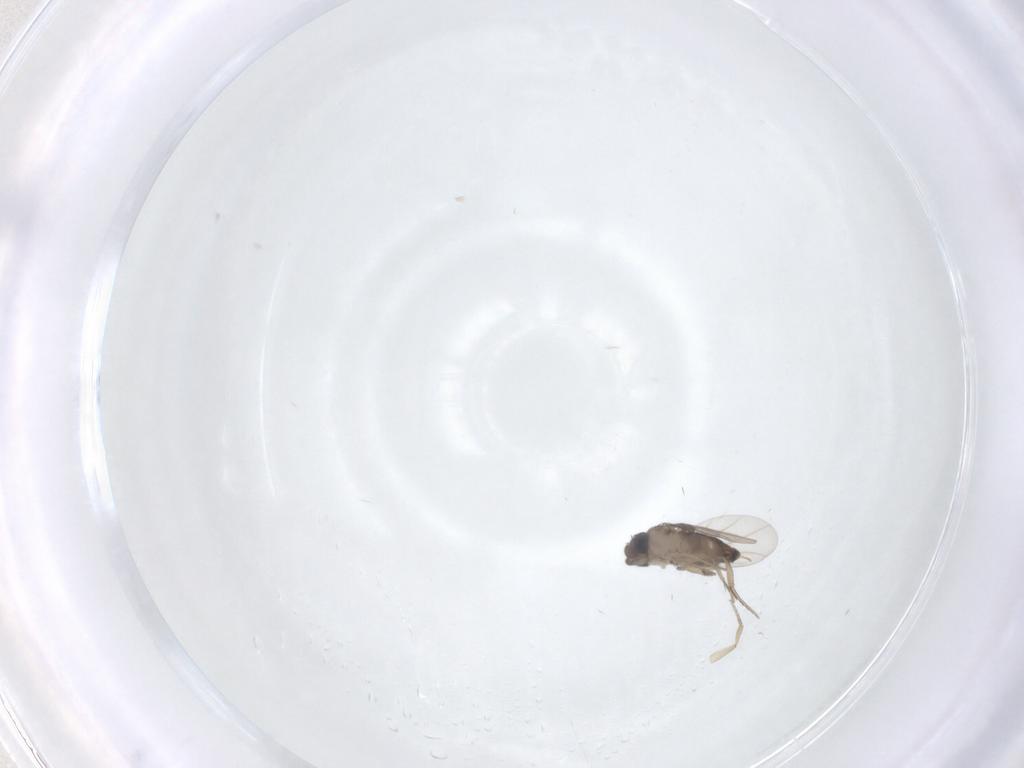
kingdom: Animalia
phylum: Arthropoda
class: Insecta
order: Diptera
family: Phoridae
